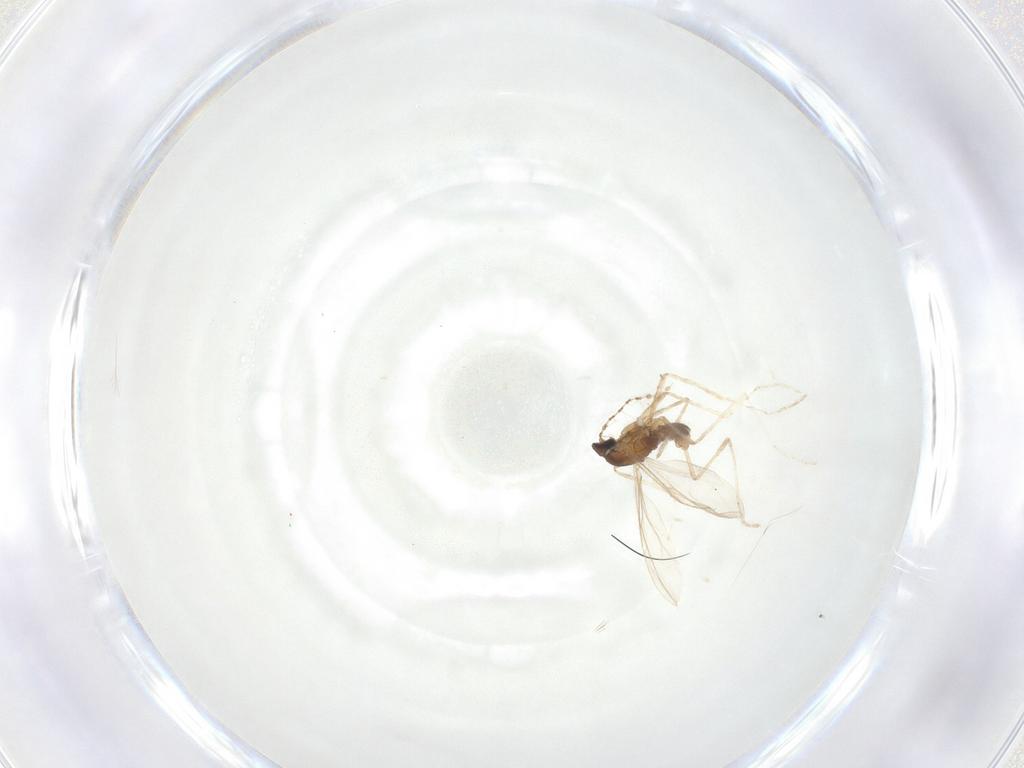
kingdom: Animalia
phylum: Arthropoda
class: Insecta
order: Diptera
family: Cecidomyiidae
